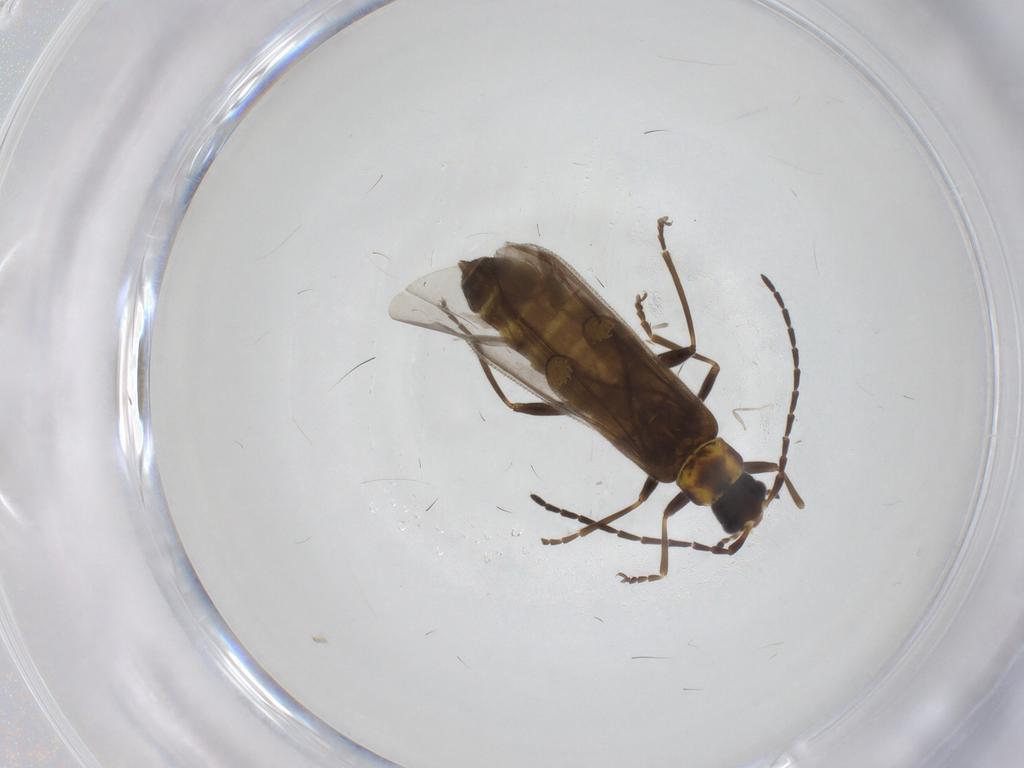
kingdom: Animalia
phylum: Arthropoda
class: Insecta
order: Coleoptera
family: Cantharidae
